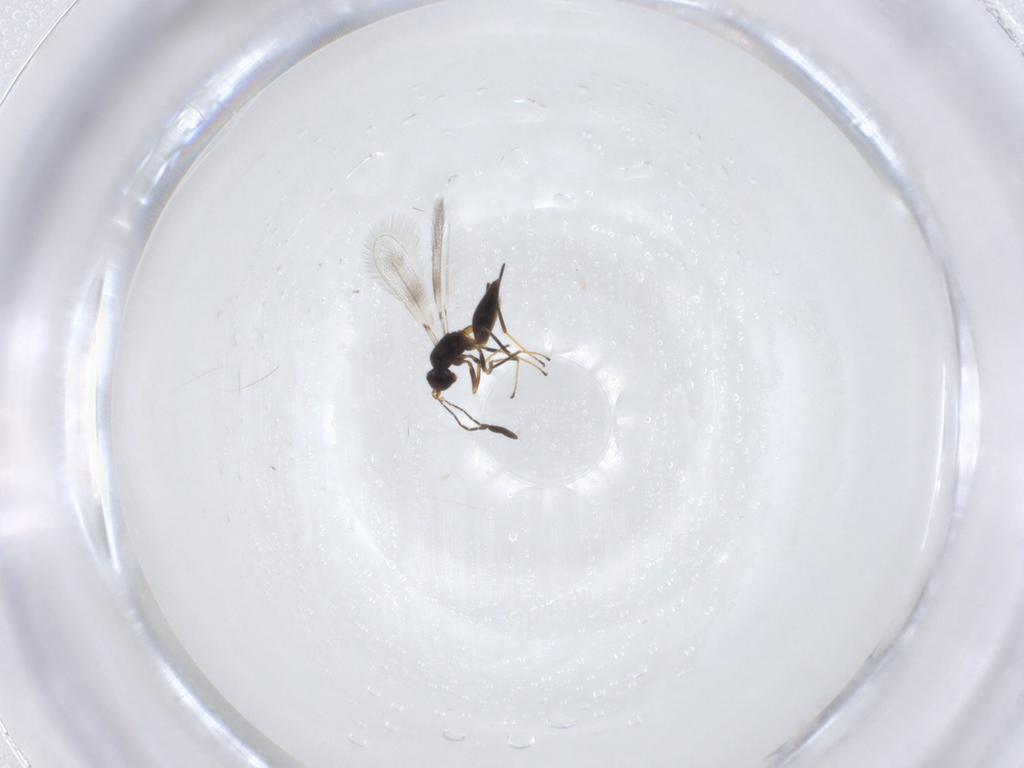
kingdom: Animalia
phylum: Arthropoda
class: Insecta
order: Hymenoptera
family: Mymaridae
